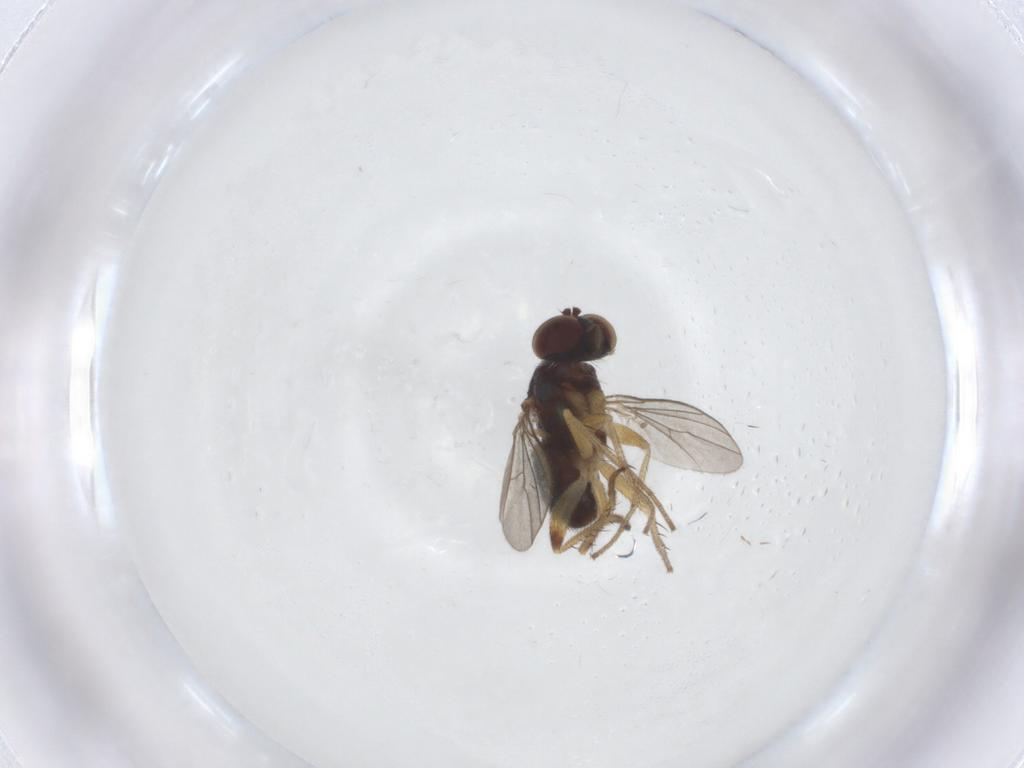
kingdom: Animalia
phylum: Arthropoda
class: Insecta
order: Diptera
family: Dolichopodidae
